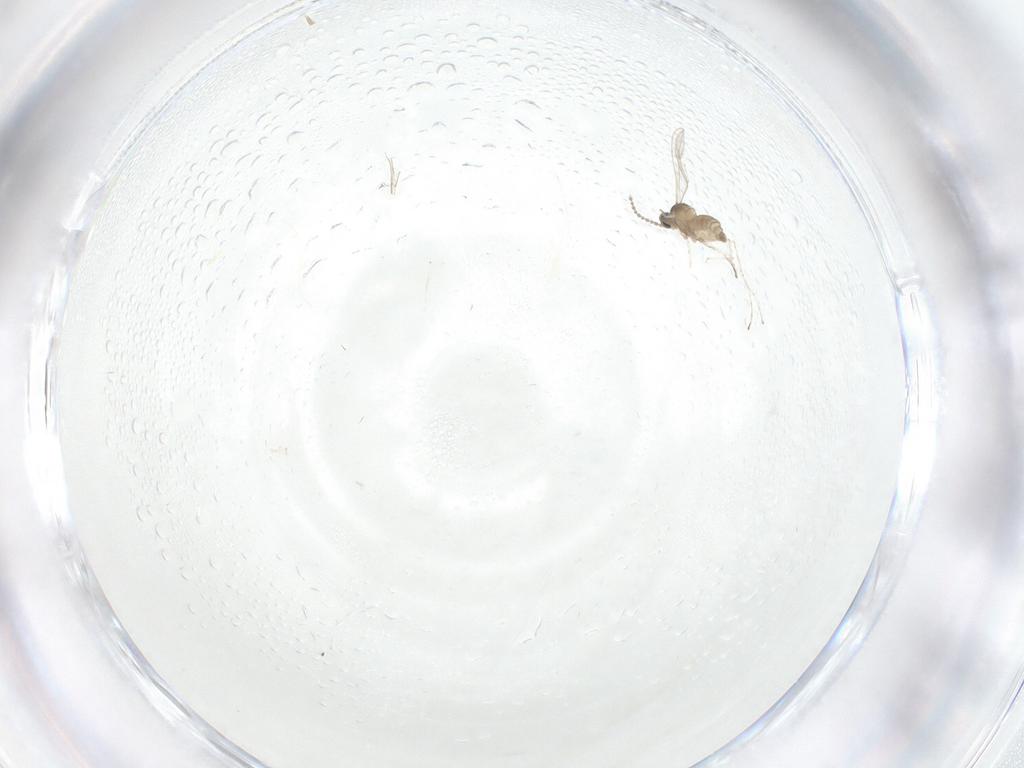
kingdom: Animalia
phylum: Arthropoda
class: Insecta
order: Diptera
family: Cecidomyiidae
